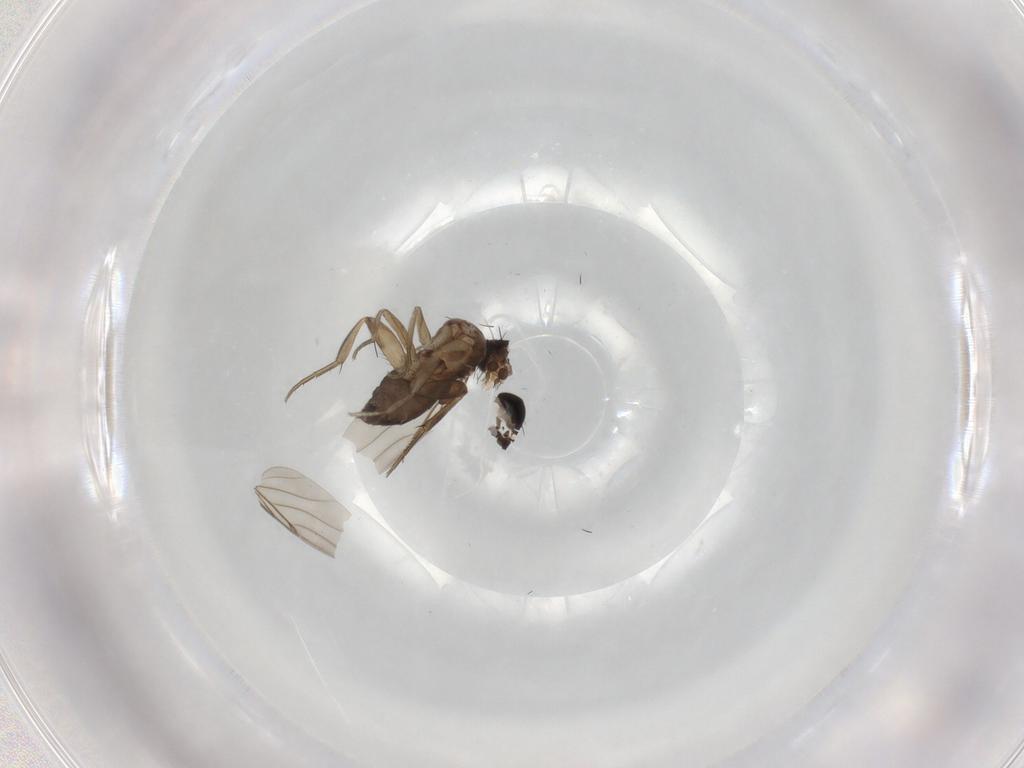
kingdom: Animalia
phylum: Arthropoda
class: Insecta
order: Diptera
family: Phoridae
